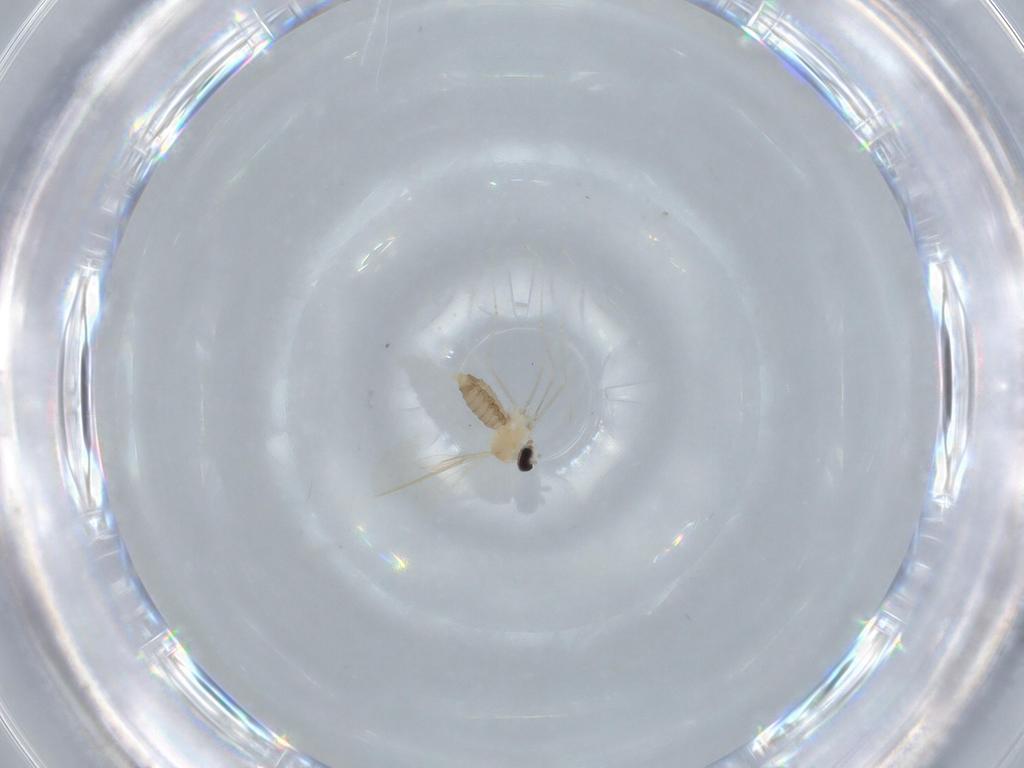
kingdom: Animalia
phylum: Arthropoda
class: Insecta
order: Diptera
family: Cecidomyiidae
